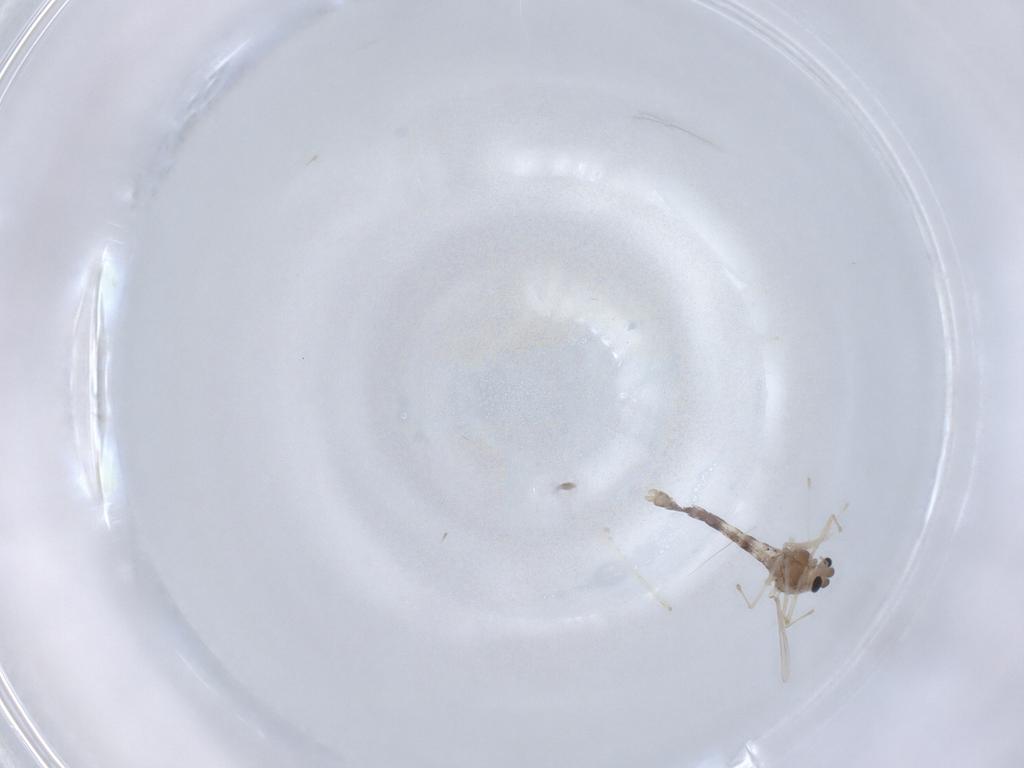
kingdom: Animalia
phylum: Arthropoda
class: Insecta
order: Diptera
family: Chironomidae
